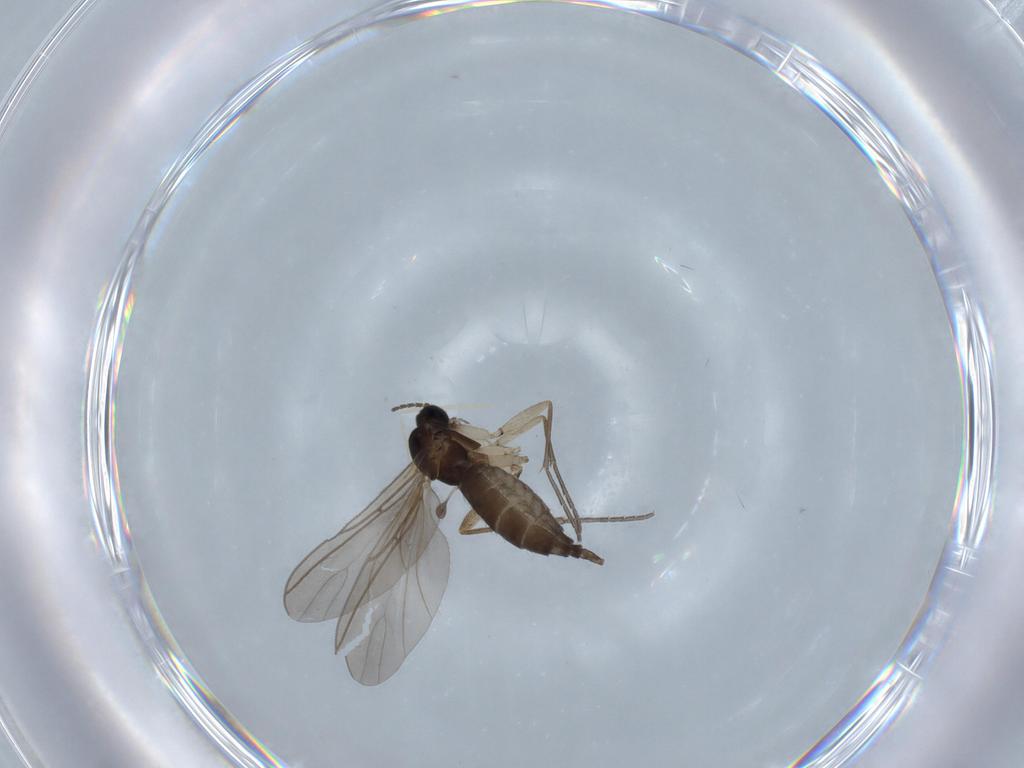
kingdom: Animalia
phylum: Arthropoda
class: Insecta
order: Diptera
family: Sciaridae
